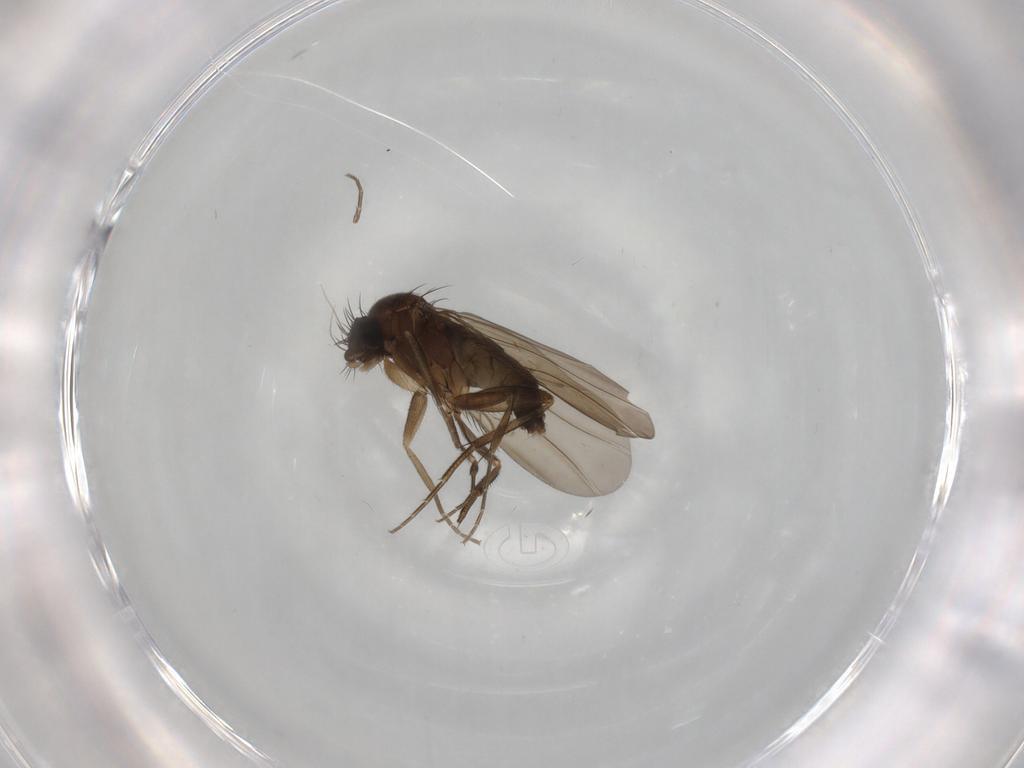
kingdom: Animalia
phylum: Arthropoda
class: Insecta
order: Diptera
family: Phoridae
